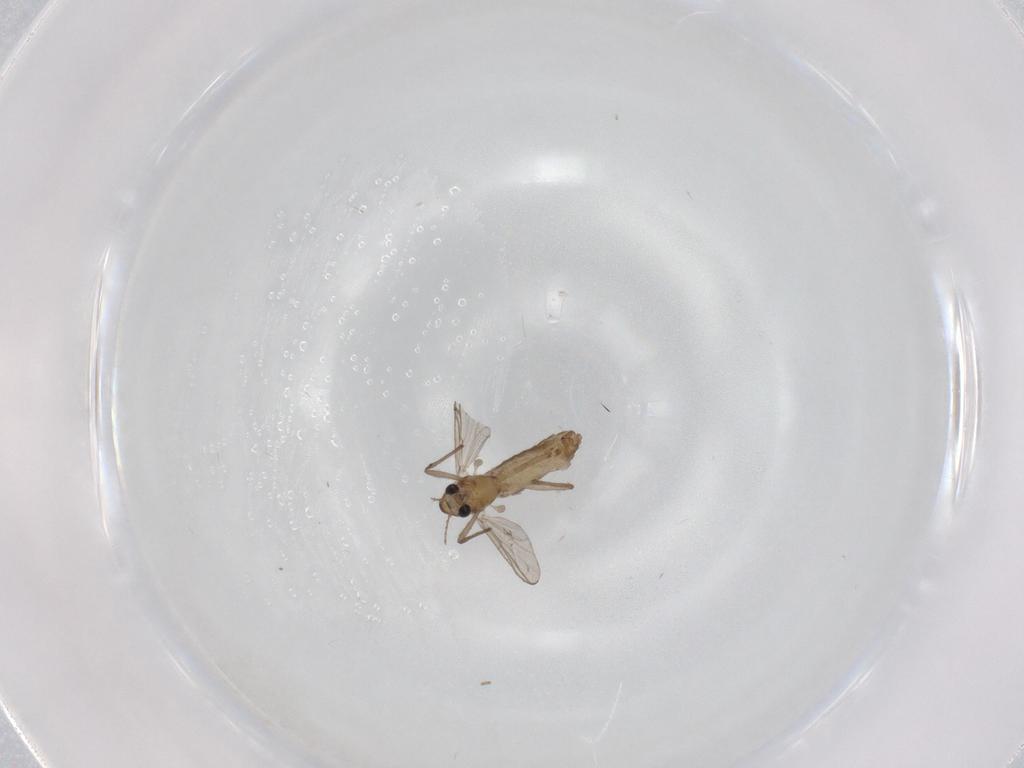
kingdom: Animalia
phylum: Arthropoda
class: Insecta
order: Diptera
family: Chironomidae
